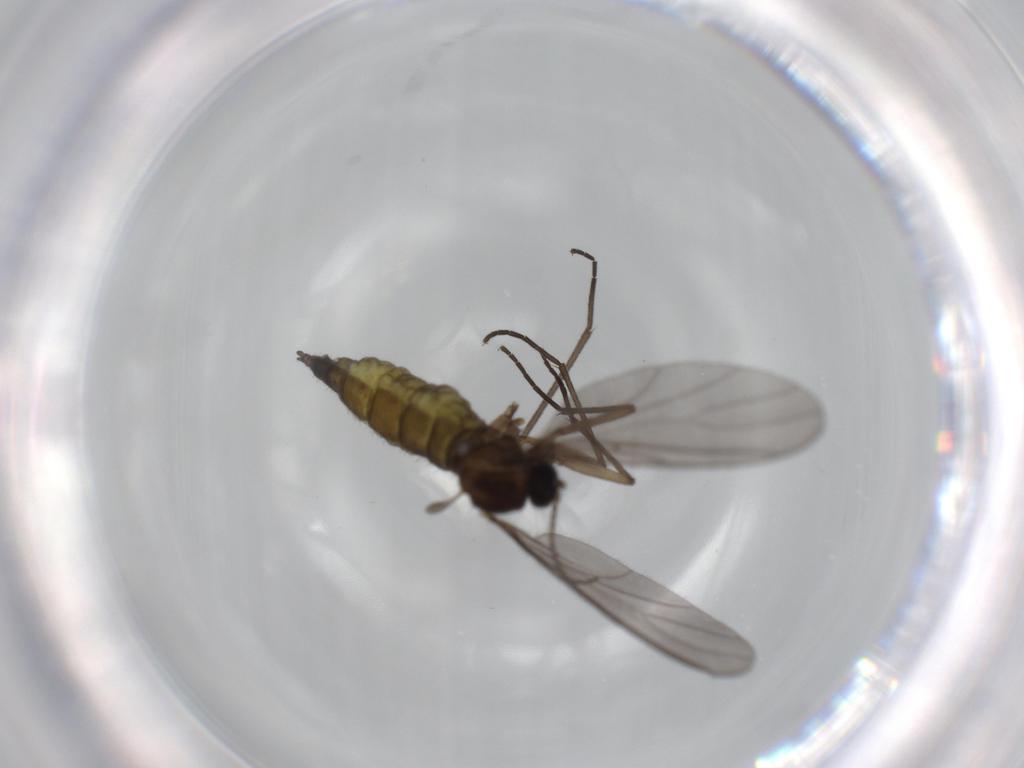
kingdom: Animalia
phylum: Arthropoda
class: Insecta
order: Diptera
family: Sciaridae
